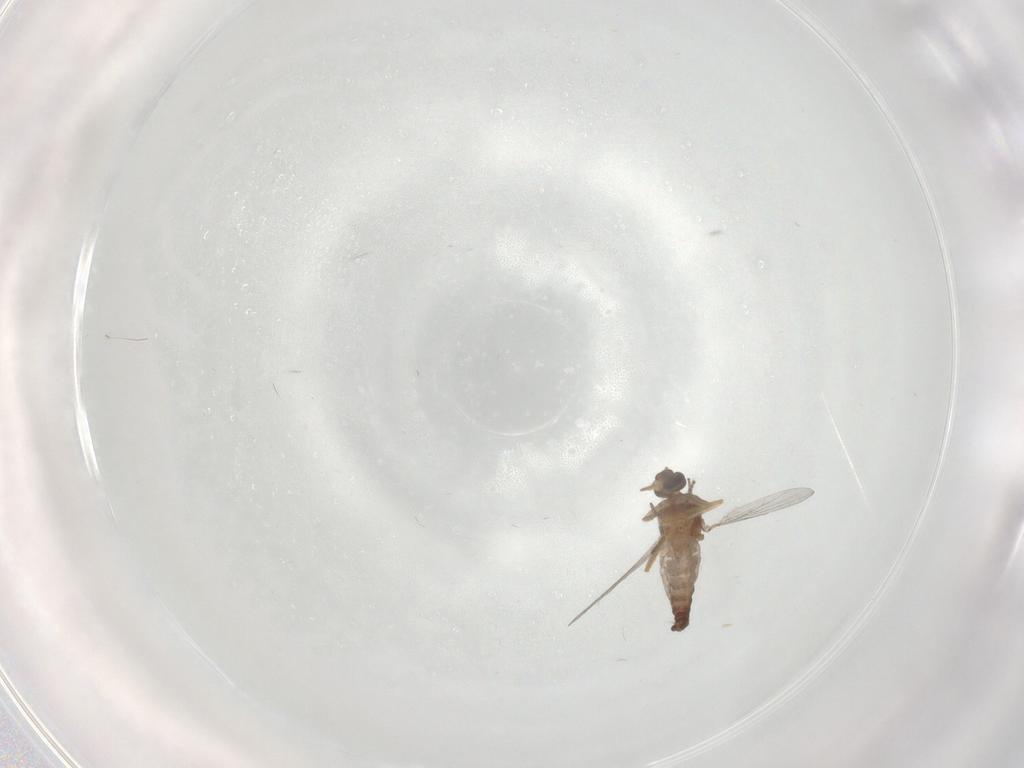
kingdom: Animalia
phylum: Arthropoda
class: Insecta
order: Diptera
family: Ceratopogonidae
